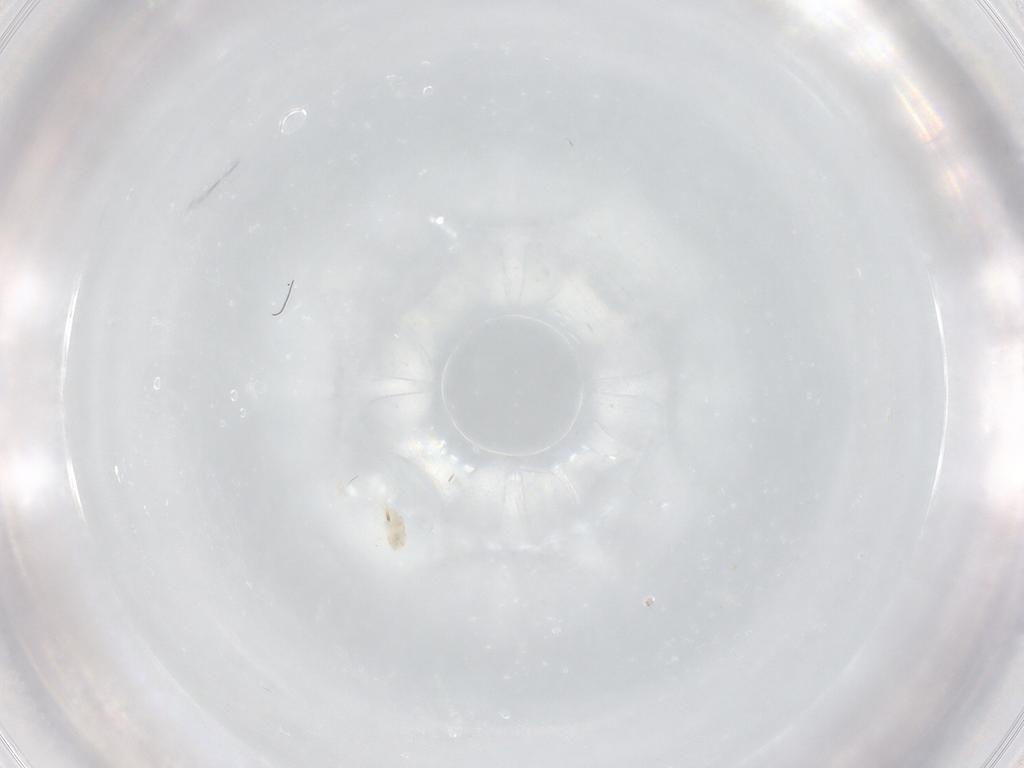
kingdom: Animalia
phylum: Arthropoda
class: Arachnida
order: Trombidiformes
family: Eupodidae
